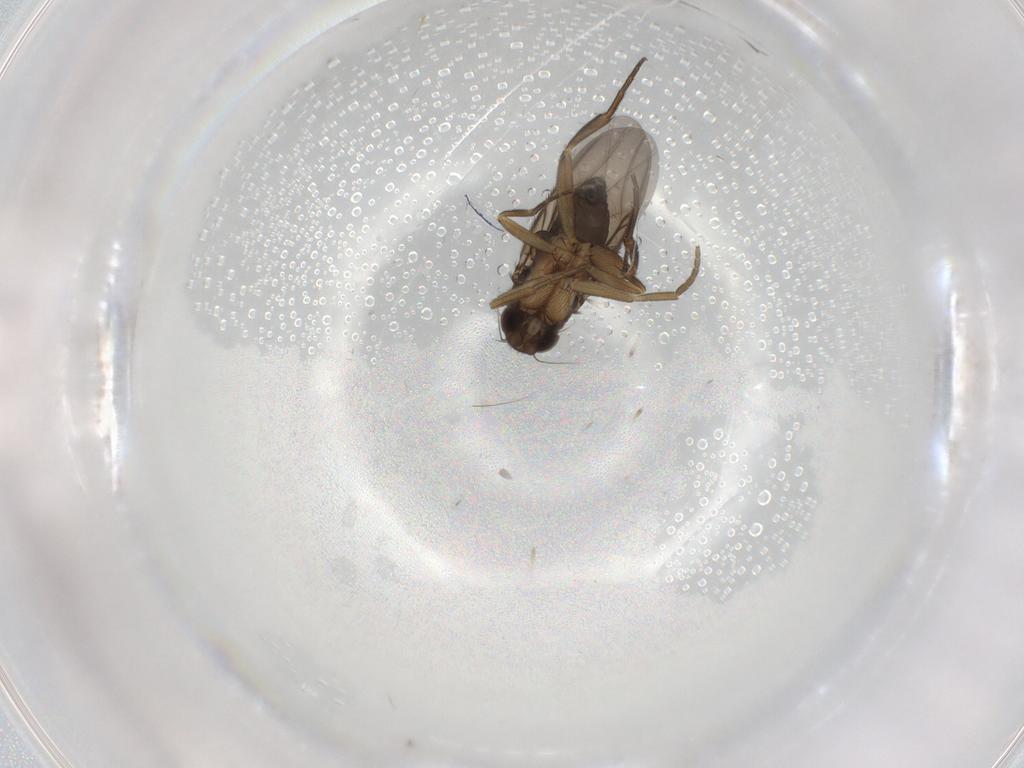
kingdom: Animalia
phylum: Arthropoda
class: Insecta
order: Diptera
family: Phoridae
